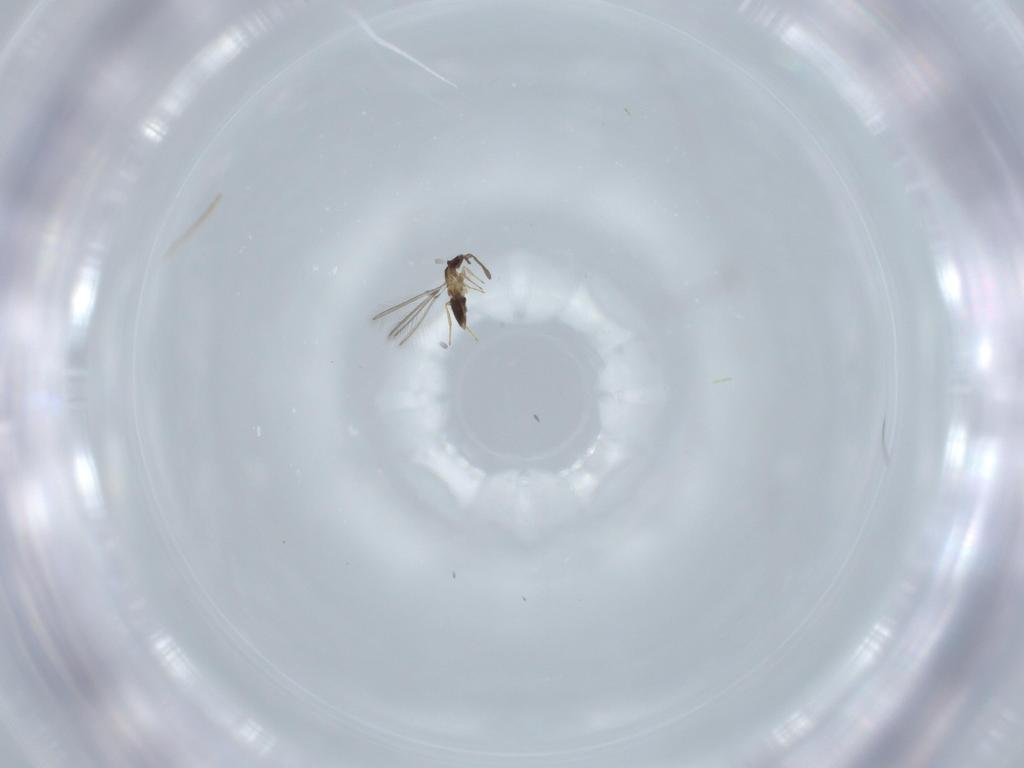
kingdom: Animalia
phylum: Arthropoda
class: Insecta
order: Hymenoptera
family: Mymaridae
